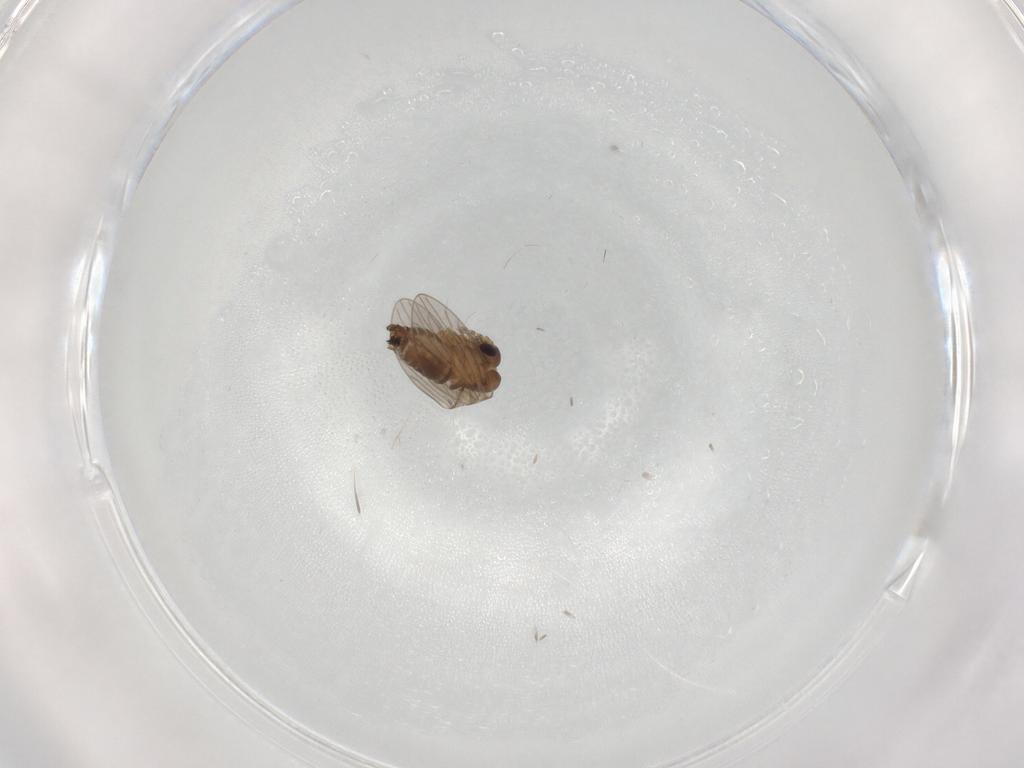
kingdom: Animalia
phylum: Arthropoda
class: Insecta
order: Diptera
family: Psychodidae
